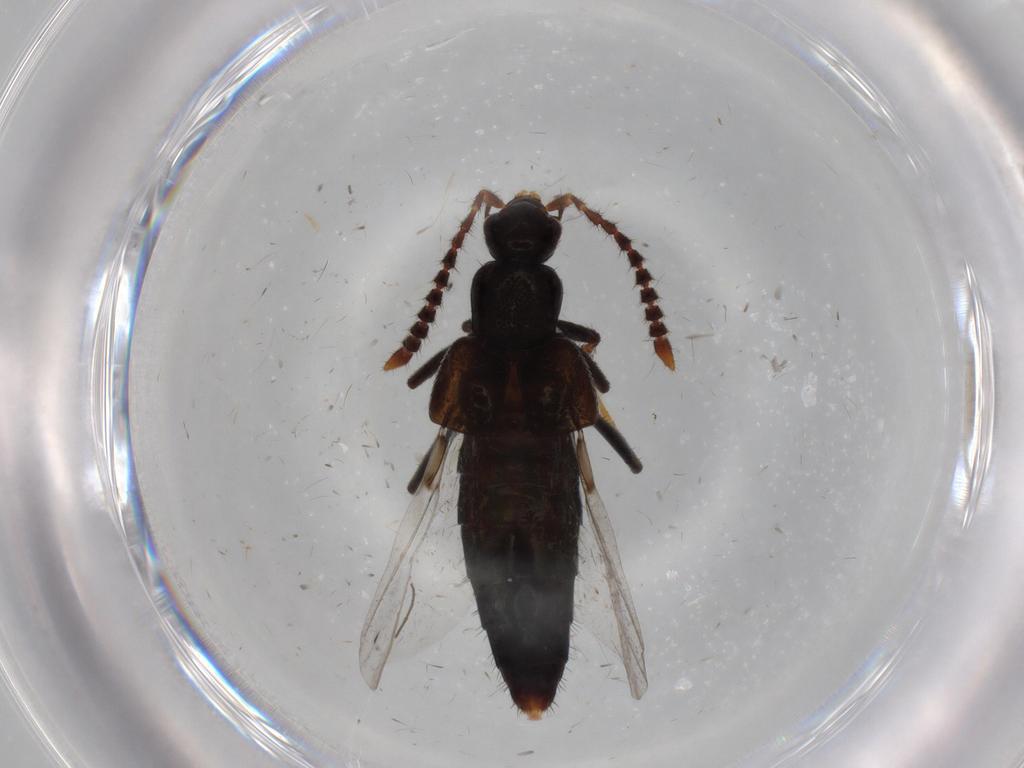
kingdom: Animalia
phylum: Arthropoda
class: Insecta
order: Coleoptera
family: Staphylinidae
